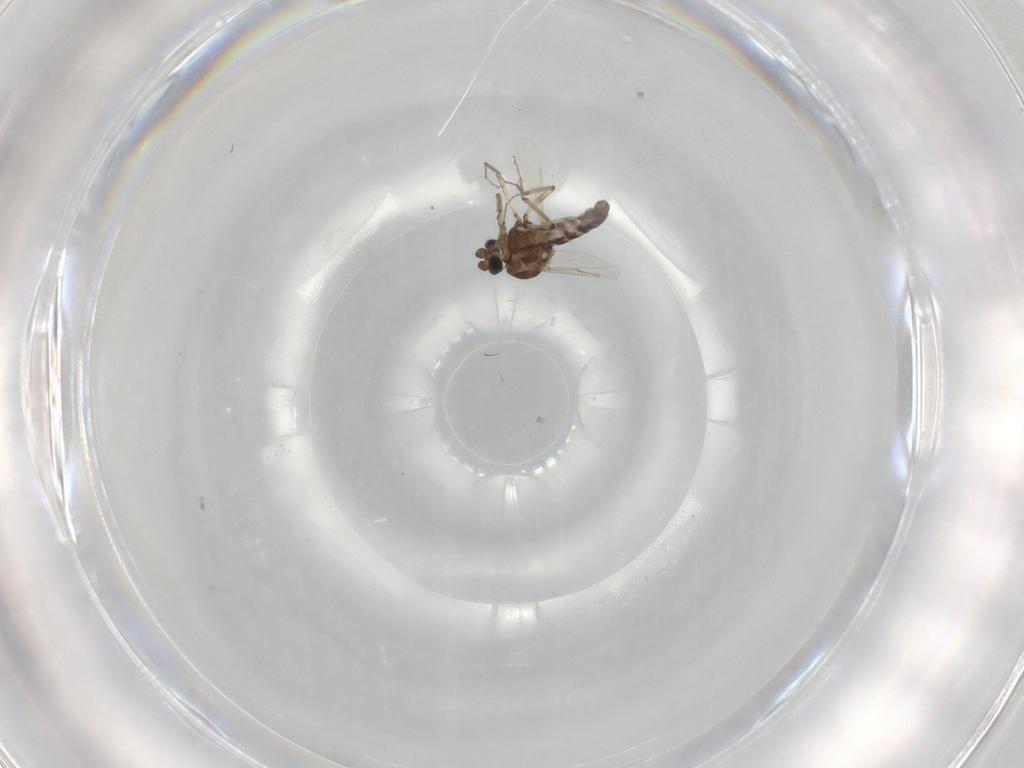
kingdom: Animalia
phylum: Arthropoda
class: Insecta
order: Diptera
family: Ceratopogonidae
